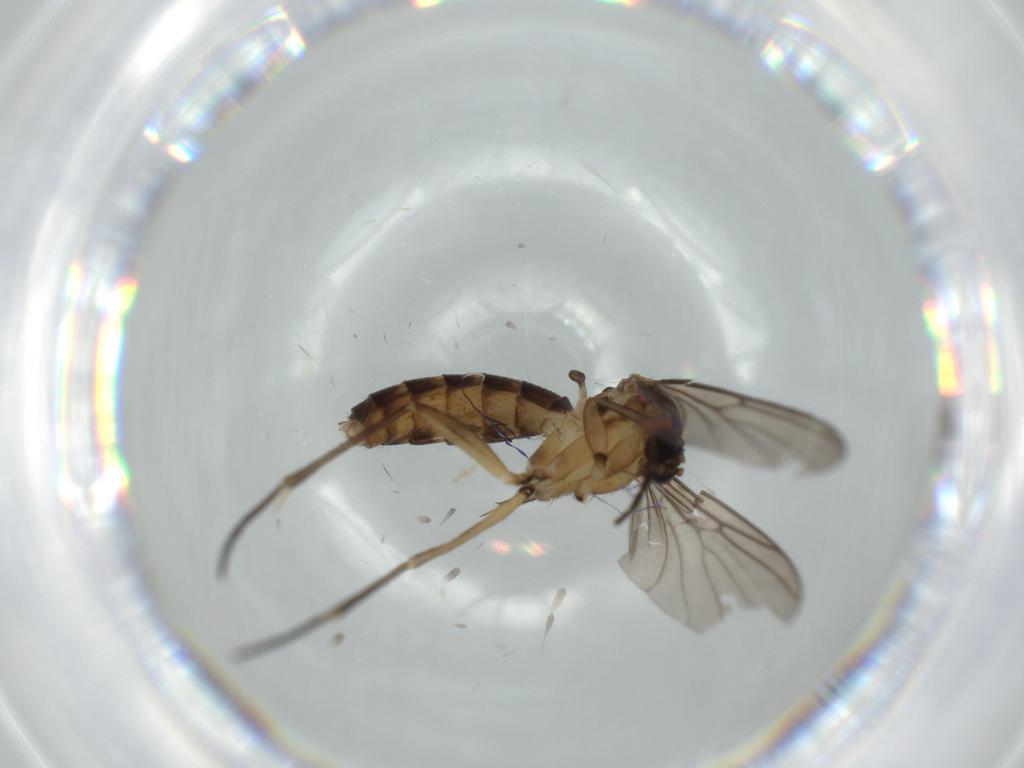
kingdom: Animalia
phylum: Arthropoda
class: Insecta
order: Diptera
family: Mycetophilidae
